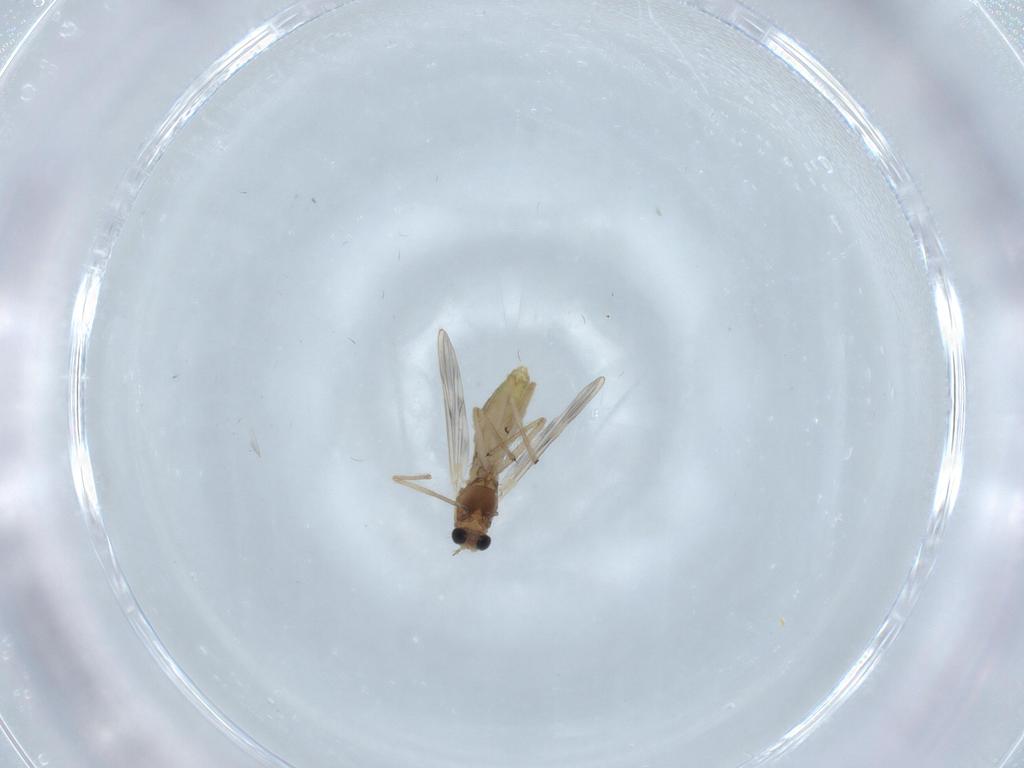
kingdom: Animalia
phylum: Arthropoda
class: Insecta
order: Diptera
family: Chironomidae
